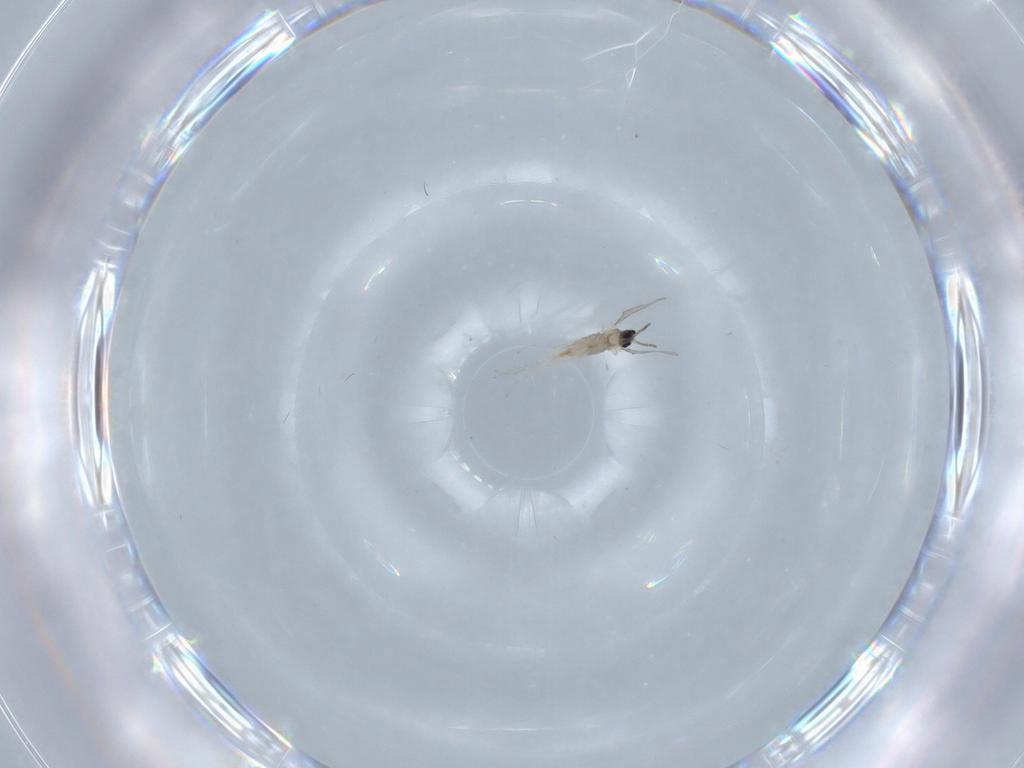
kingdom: Animalia
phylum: Arthropoda
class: Insecta
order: Diptera
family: Cecidomyiidae
